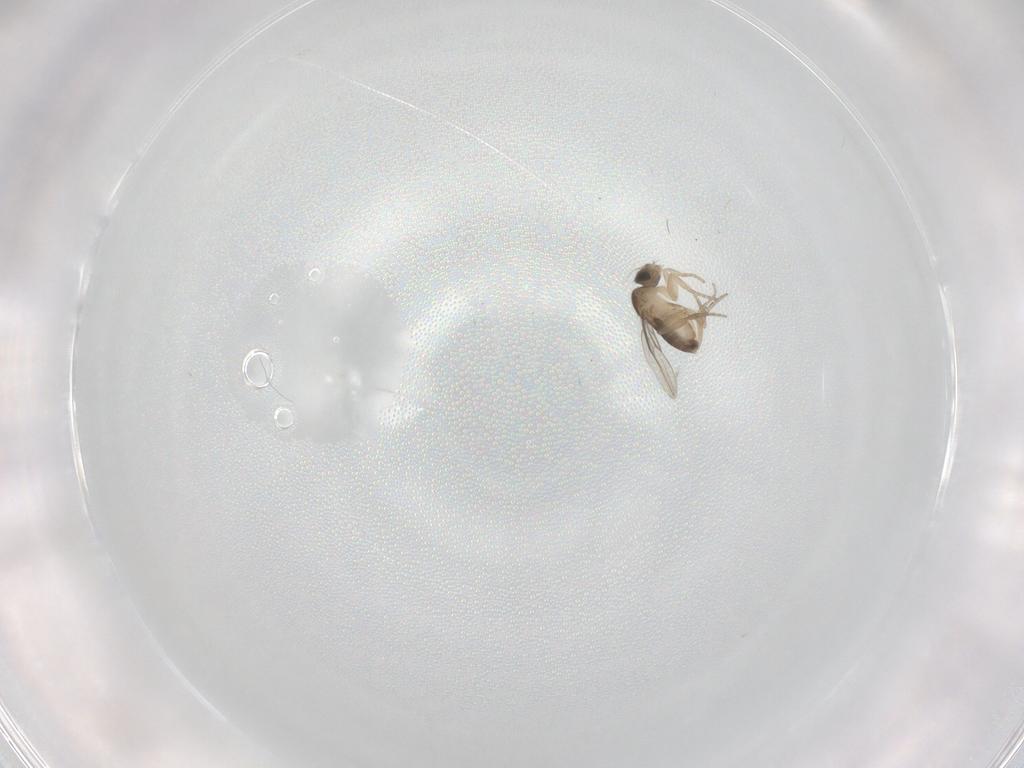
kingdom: Animalia
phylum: Arthropoda
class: Insecta
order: Diptera
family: Phoridae
